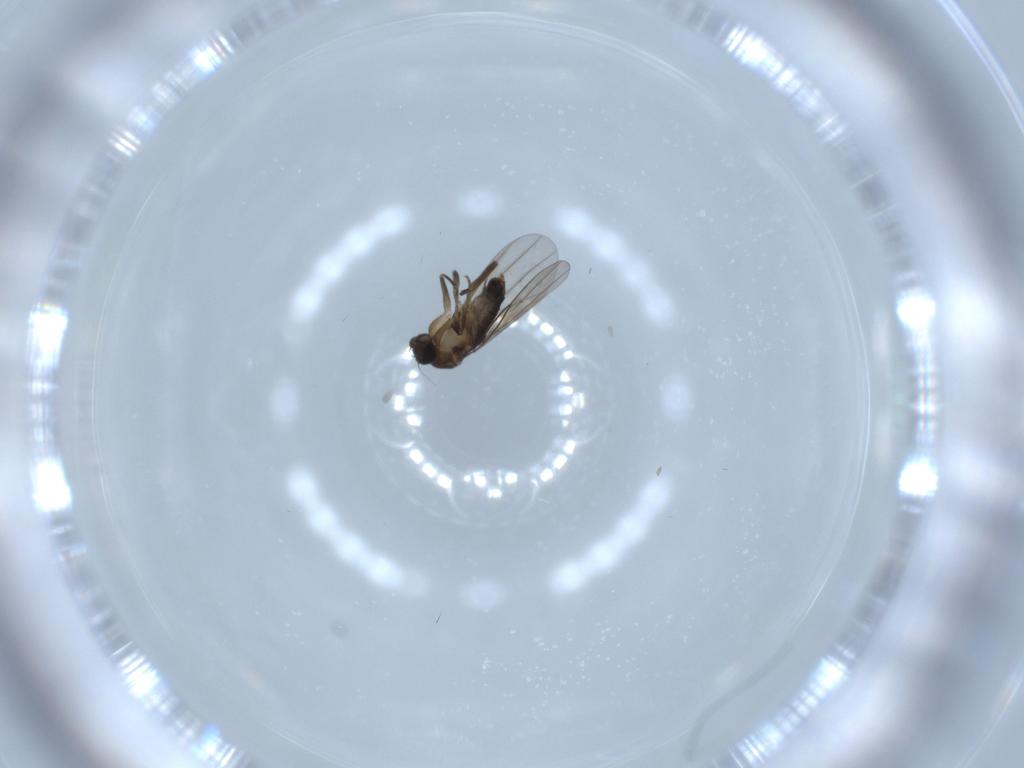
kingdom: Animalia
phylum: Arthropoda
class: Insecta
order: Diptera
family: Phoridae
